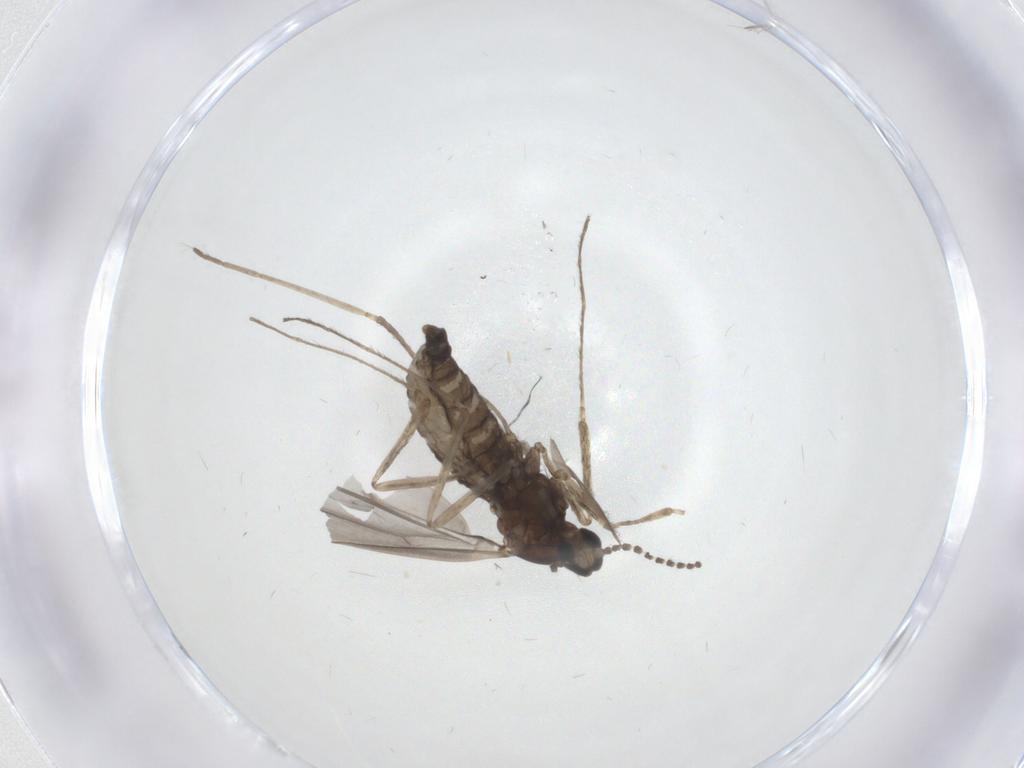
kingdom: Animalia
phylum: Arthropoda
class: Insecta
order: Diptera
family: Cecidomyiidae
